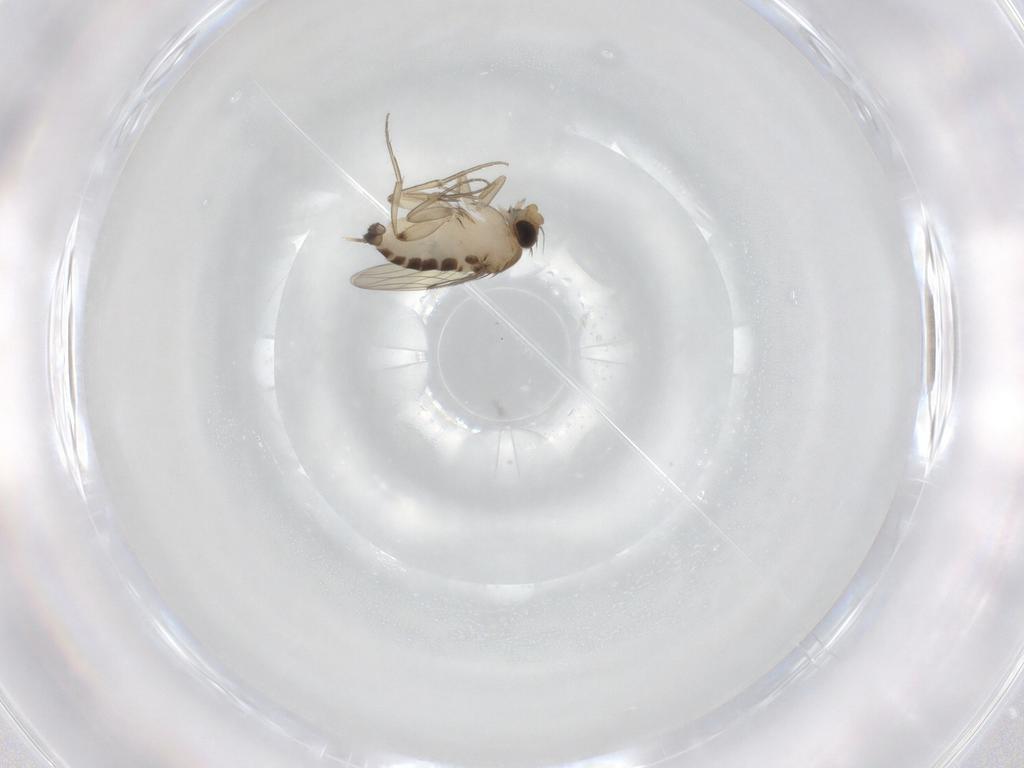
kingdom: Animalia
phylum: Arthropoda
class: Insecta
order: Diptera
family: Phoridae
